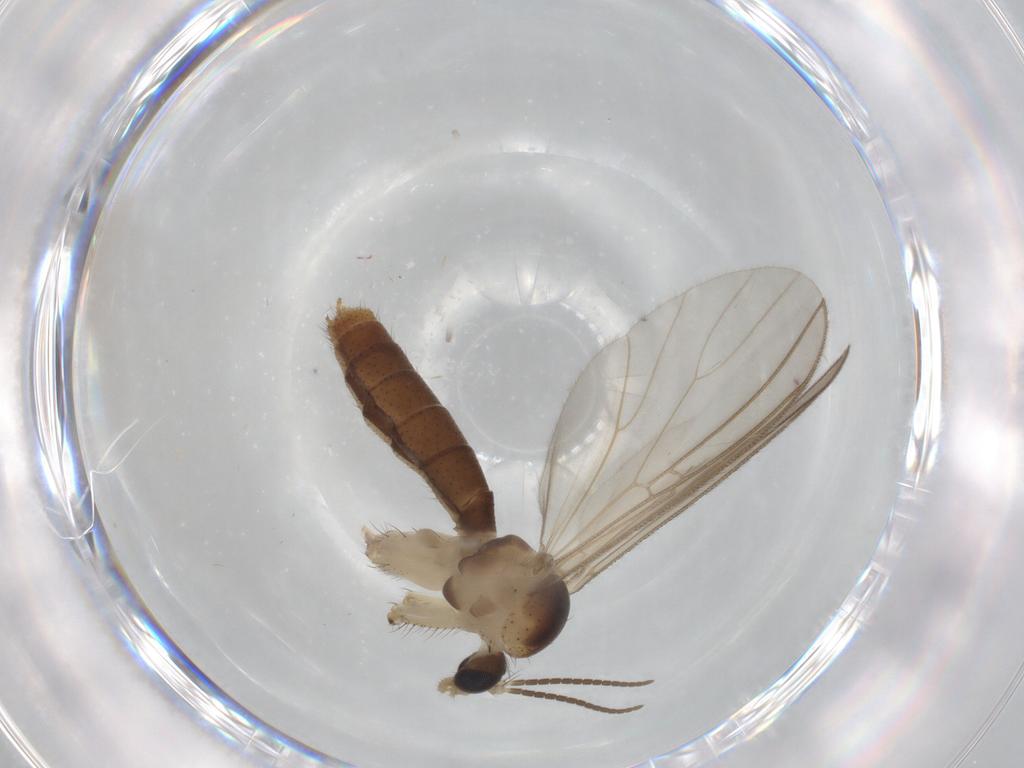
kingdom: Animalia
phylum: Arthropoda
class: Insecta
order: Diptera
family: Mycetophilidae
